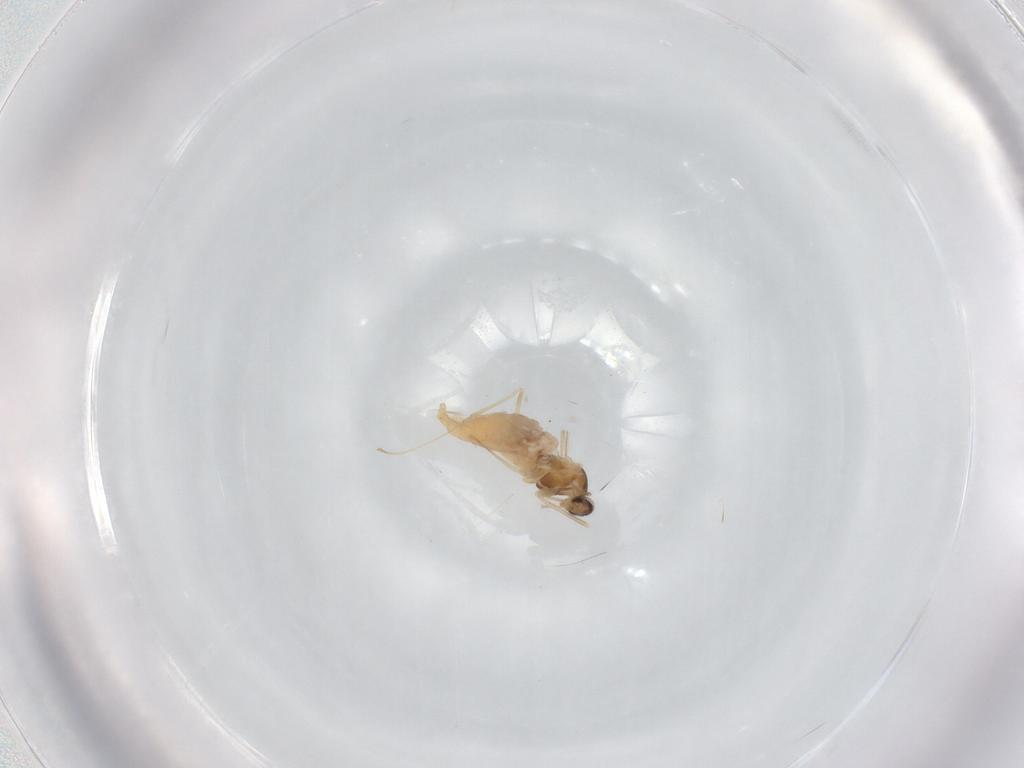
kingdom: Animalia
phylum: Arthropoda
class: Insecta
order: Diptera
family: Cecidomyiidae
